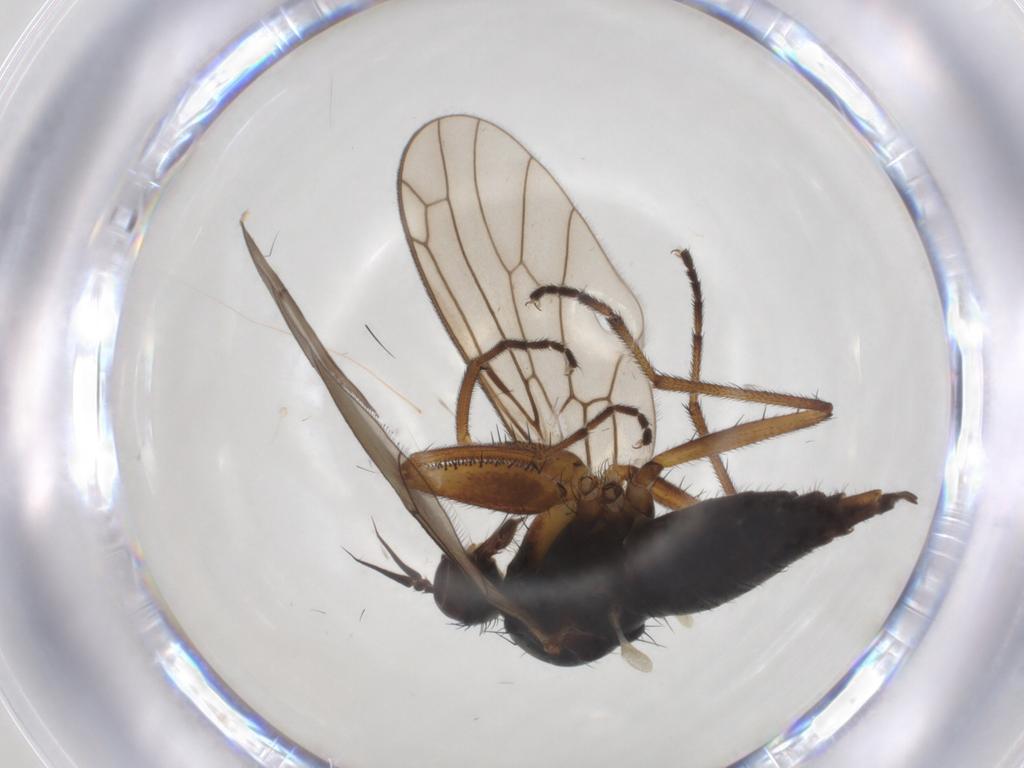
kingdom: Animalia
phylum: Arthropoda
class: Insecta
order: Diptera
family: Empididae
